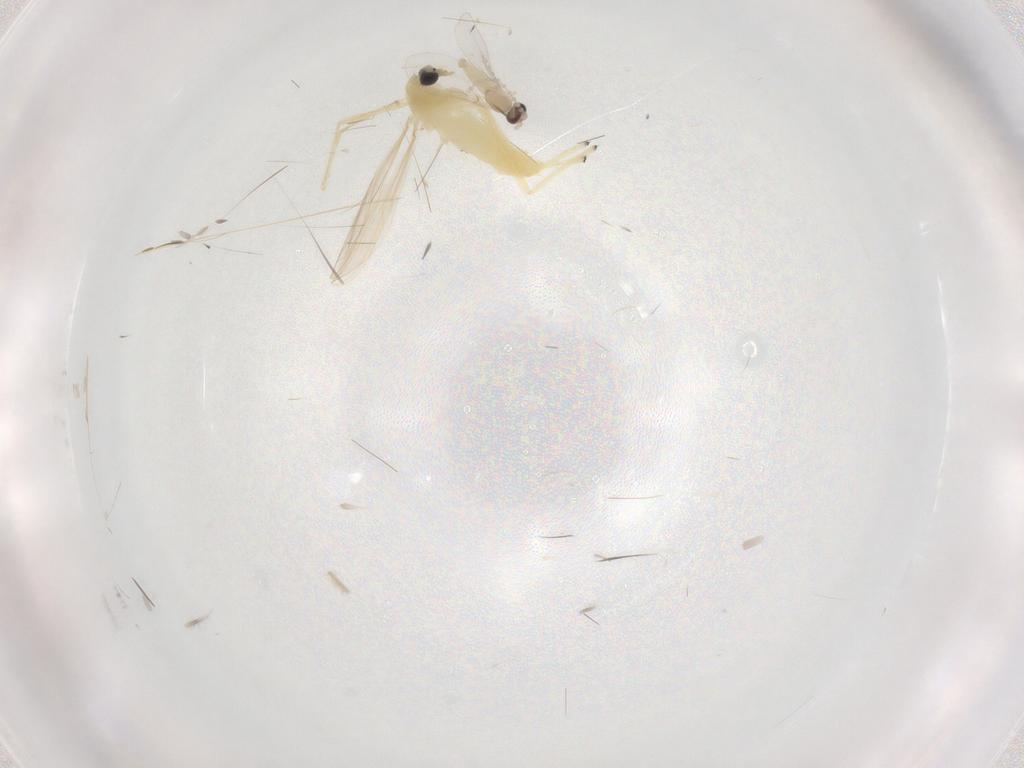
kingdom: Animalia
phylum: Arthropoda
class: Insecta
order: Diptera
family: Chironomidae
